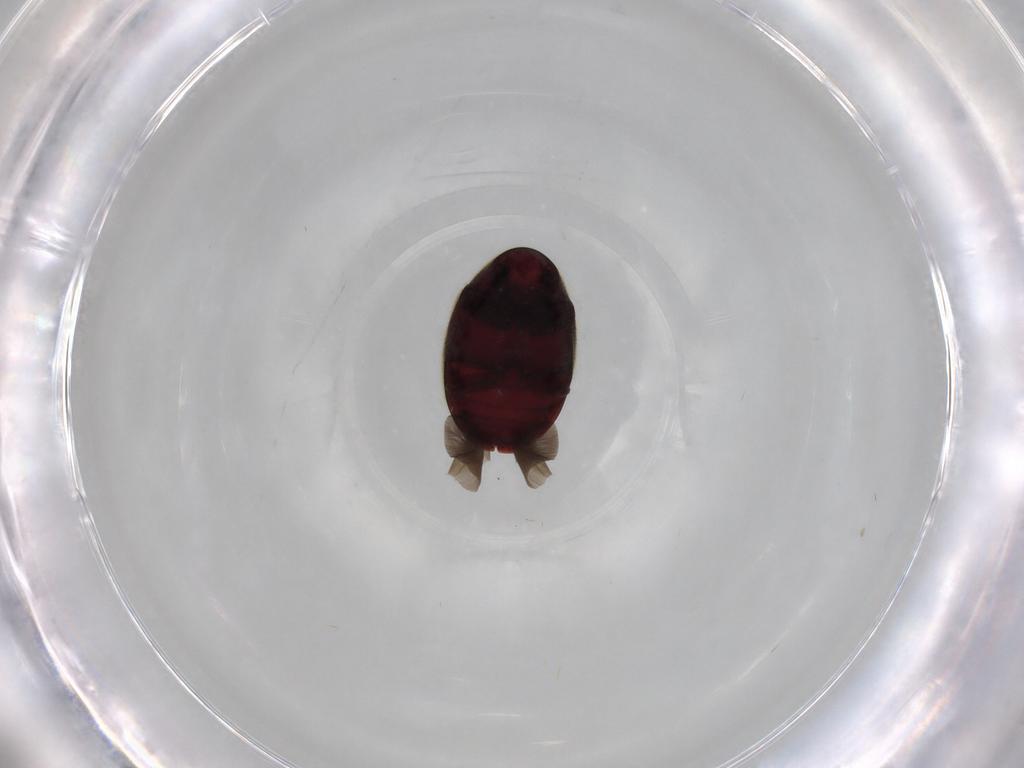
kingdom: Animalia
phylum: Arthropoda
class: Insecta
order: Coleoptera
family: Ptinidae
